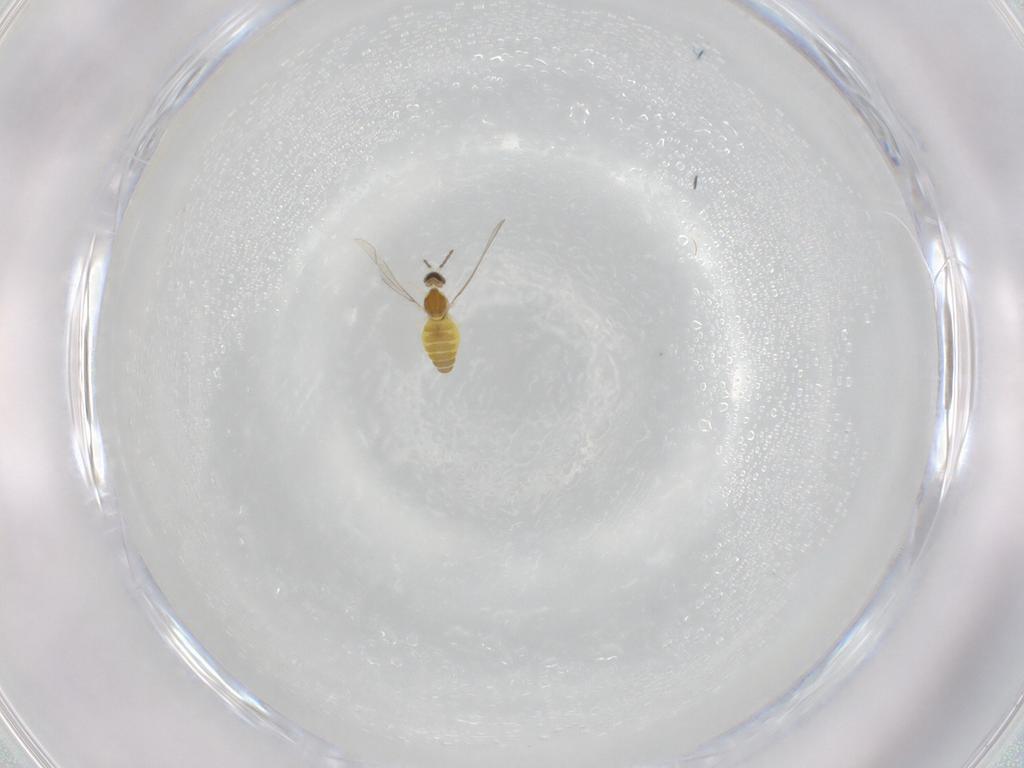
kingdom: Animalia
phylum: Arthropoda
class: Insecta
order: Diptera
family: Cecidomyiidae
